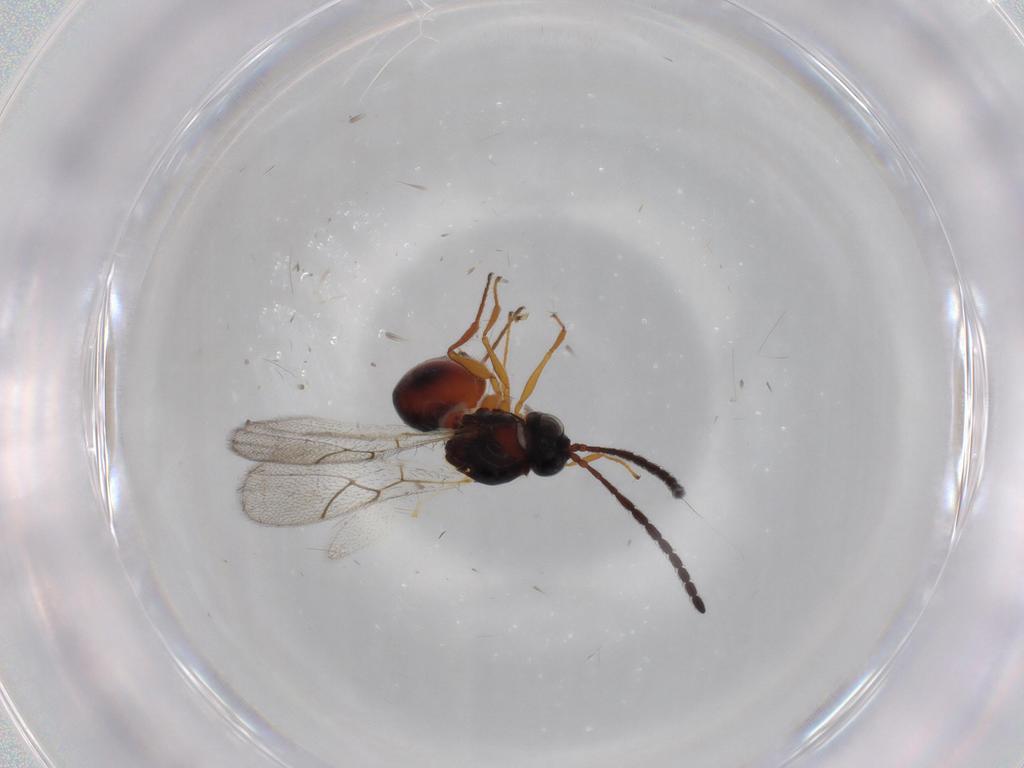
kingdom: Animalia
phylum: Arthropoda
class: Insecta
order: Hymenoptera
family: Figitidae
